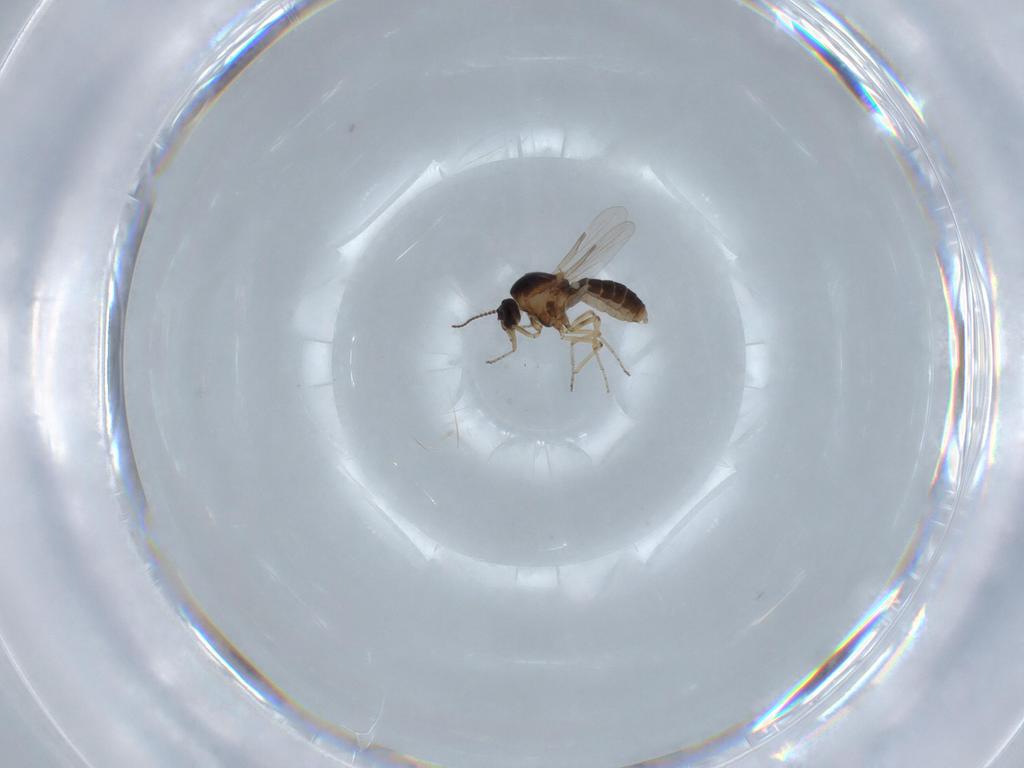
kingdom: Animalia
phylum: Arthropoda
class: Insecta
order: Diptera
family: Ceratopogonidae
